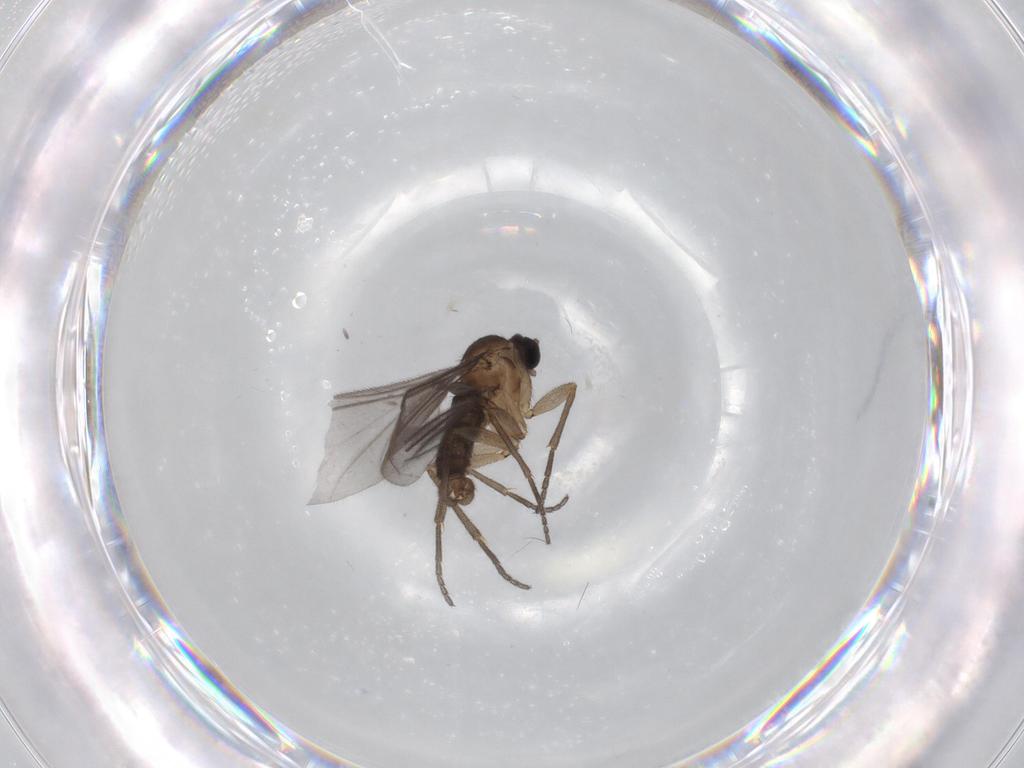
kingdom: Animalia
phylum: Arthropoda
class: Insecta
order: Diptera
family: Sciaridae
